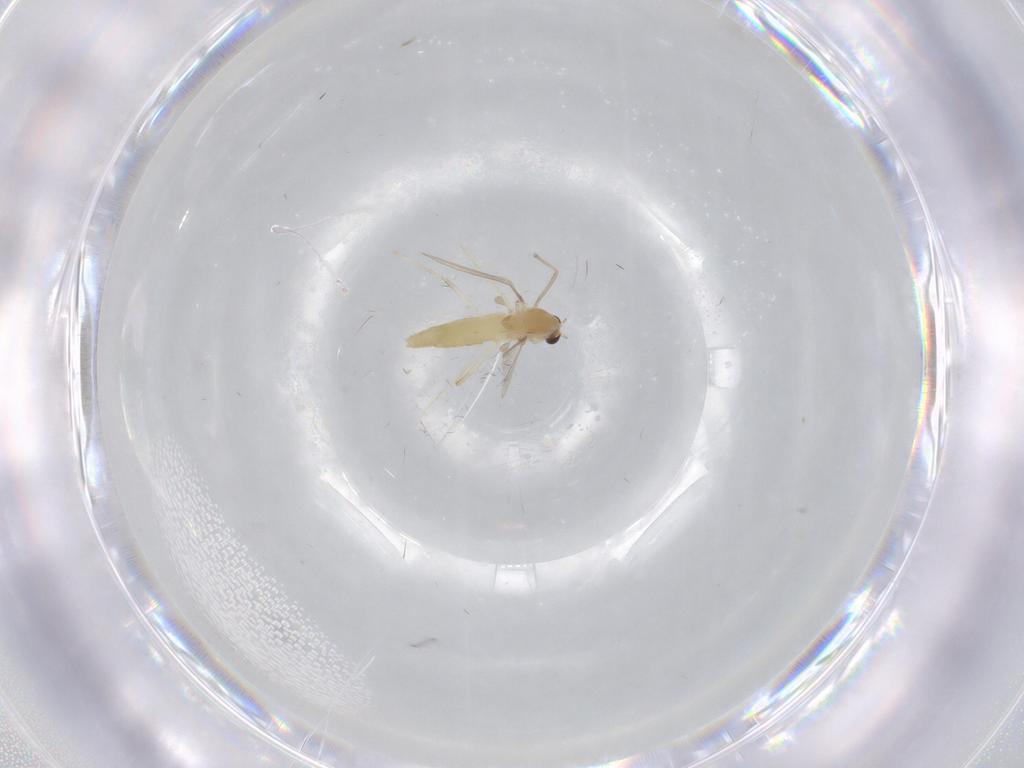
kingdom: Animalia
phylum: Arthropoda
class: Insecta
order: Diptera
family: Chironomidae
